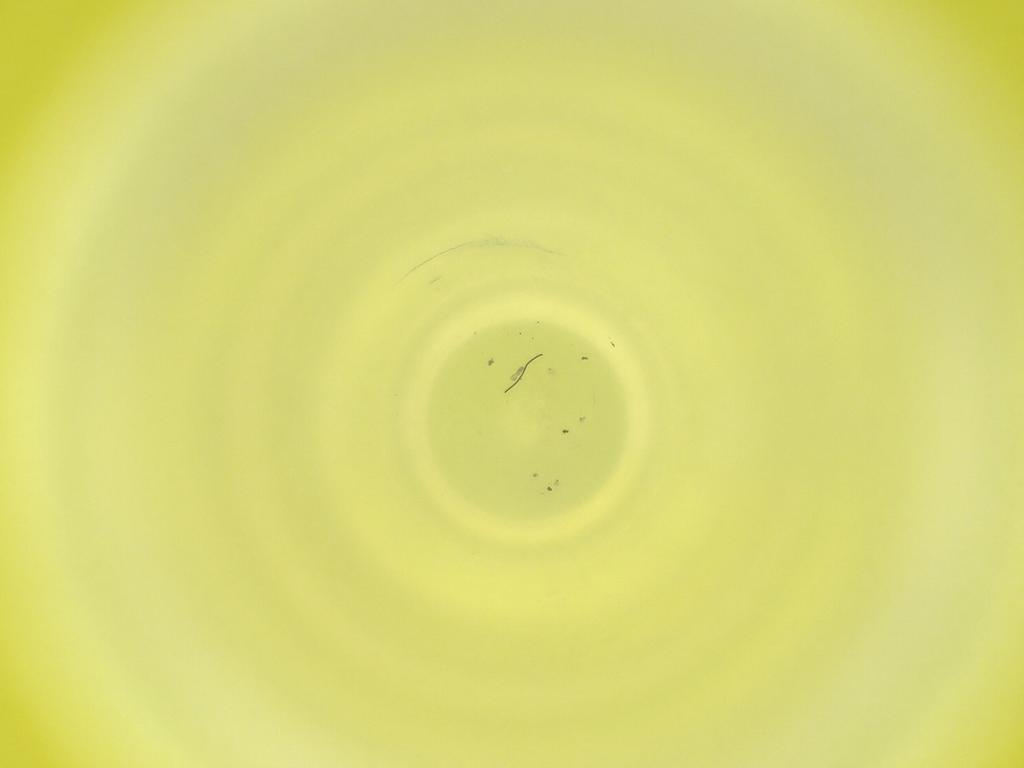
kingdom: Animalia
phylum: Arthropoda
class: Insecta
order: Diptera
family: Cecidomyiidae
